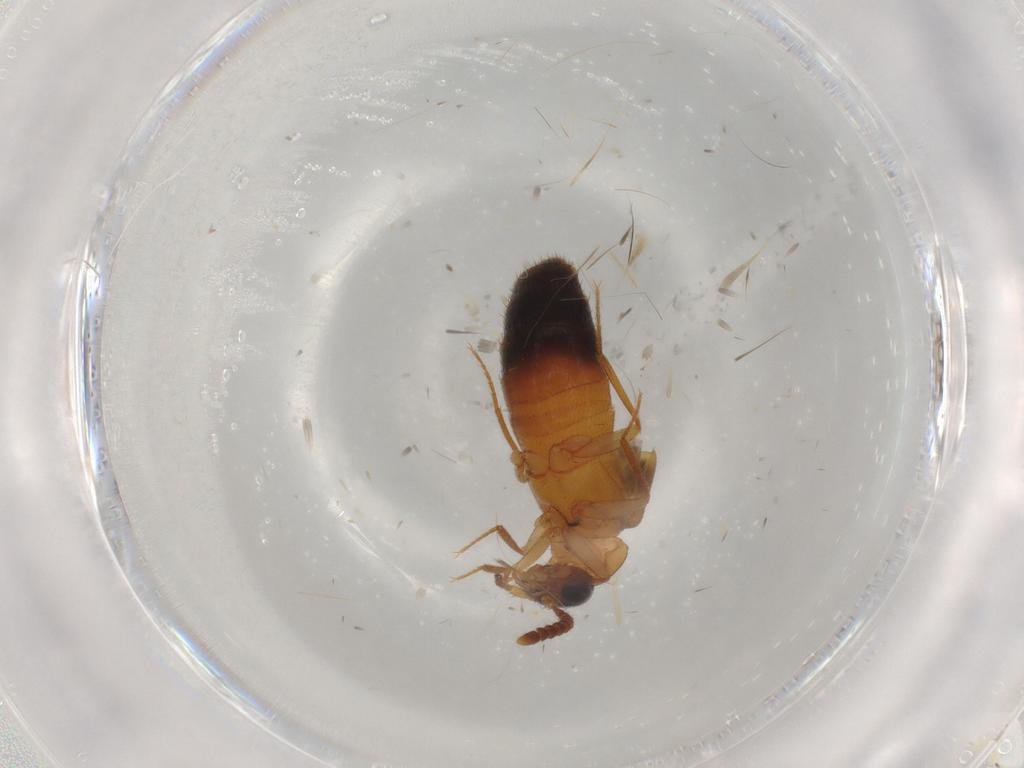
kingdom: Animalia
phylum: Arthropoda
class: Insecta
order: Coleoptera
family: Staphylinidae
